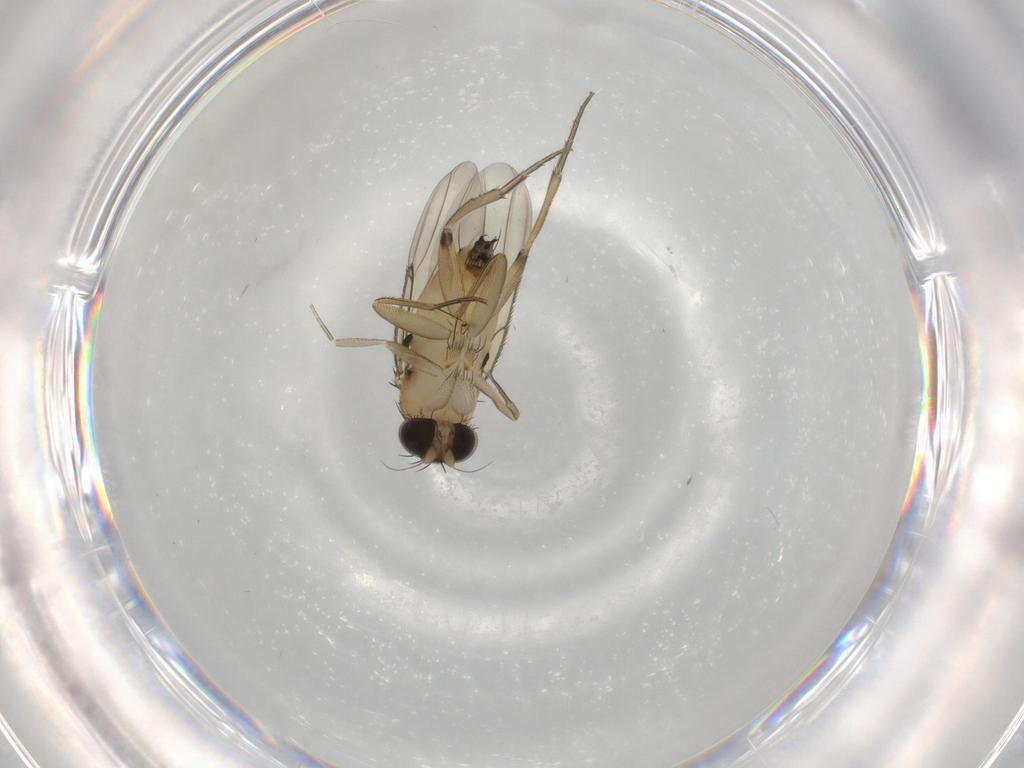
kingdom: Animalia
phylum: Arthropoda
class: Insecta
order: Diptera
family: Phoridae
